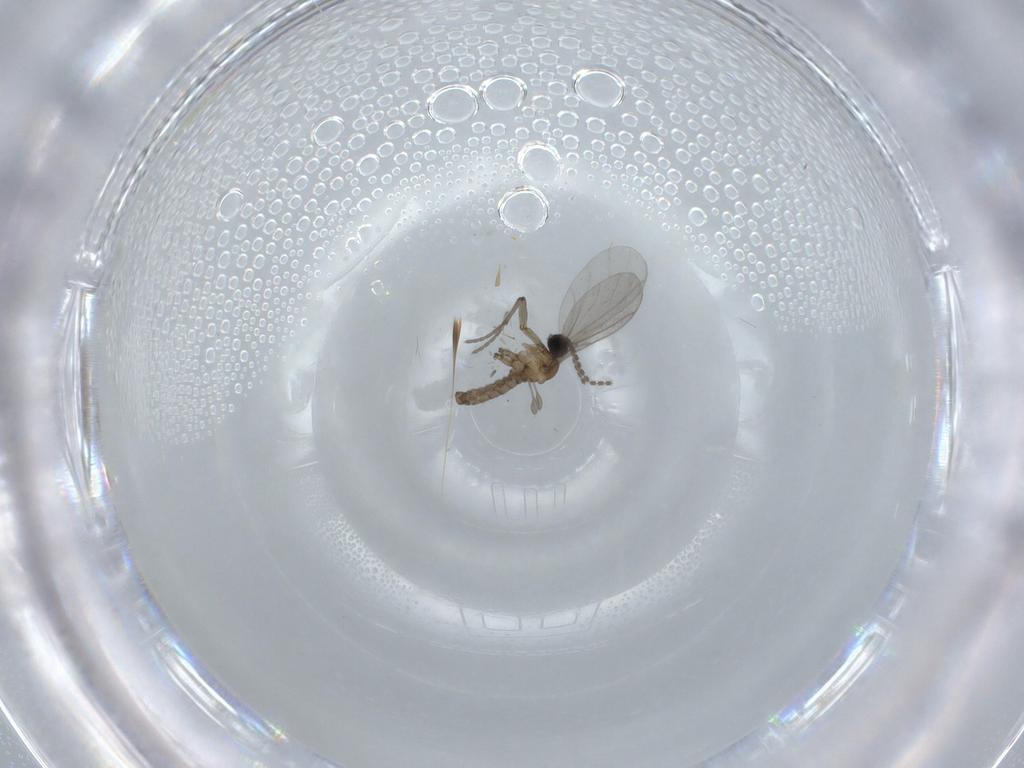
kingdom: Animalia
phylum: Arthropoda
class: Insecta
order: Diptera
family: Sciaridae
